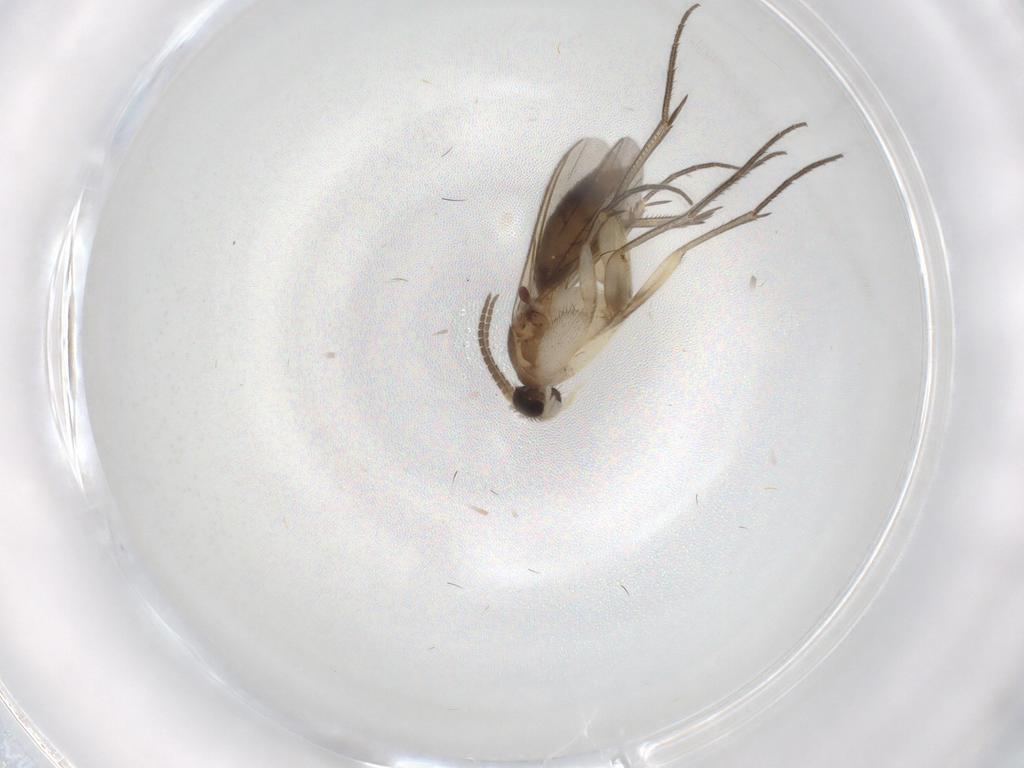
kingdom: Animalia
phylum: Arthropoda
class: Insecta
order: Diptera
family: Mycetophilidae
